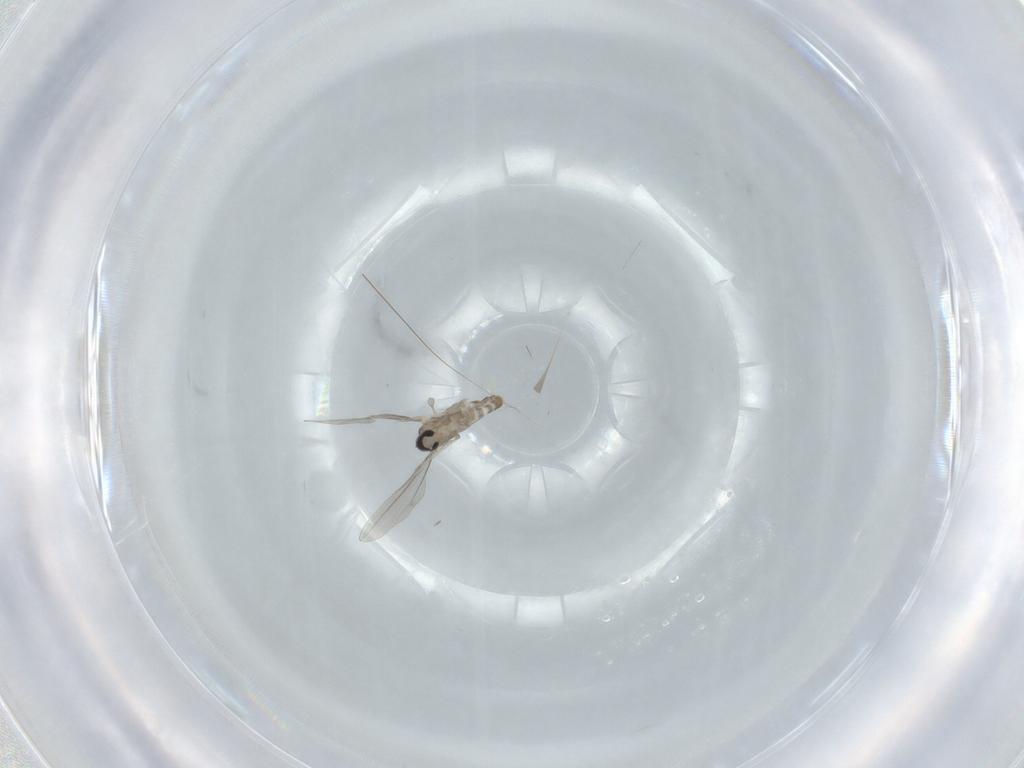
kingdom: Animalia
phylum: Arthropoda
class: Insecta
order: Diptera
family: Cecidomyiidae
